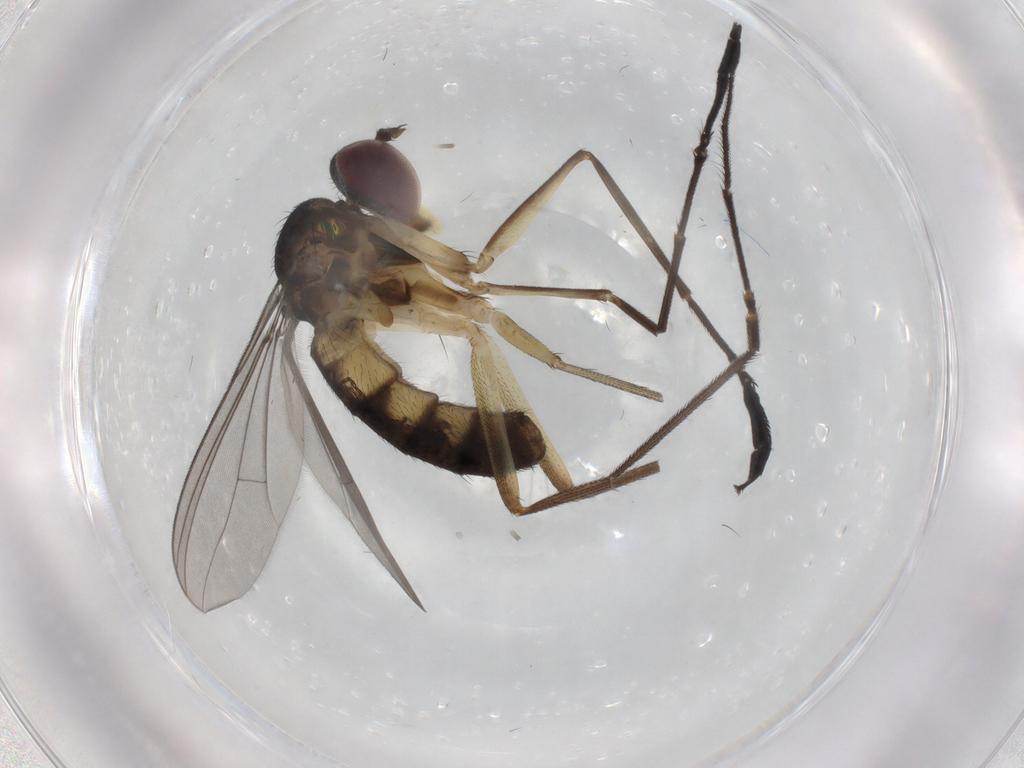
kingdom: Animalia
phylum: Arthropoda
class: Insecta
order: Diptera
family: Dolichopodidae
